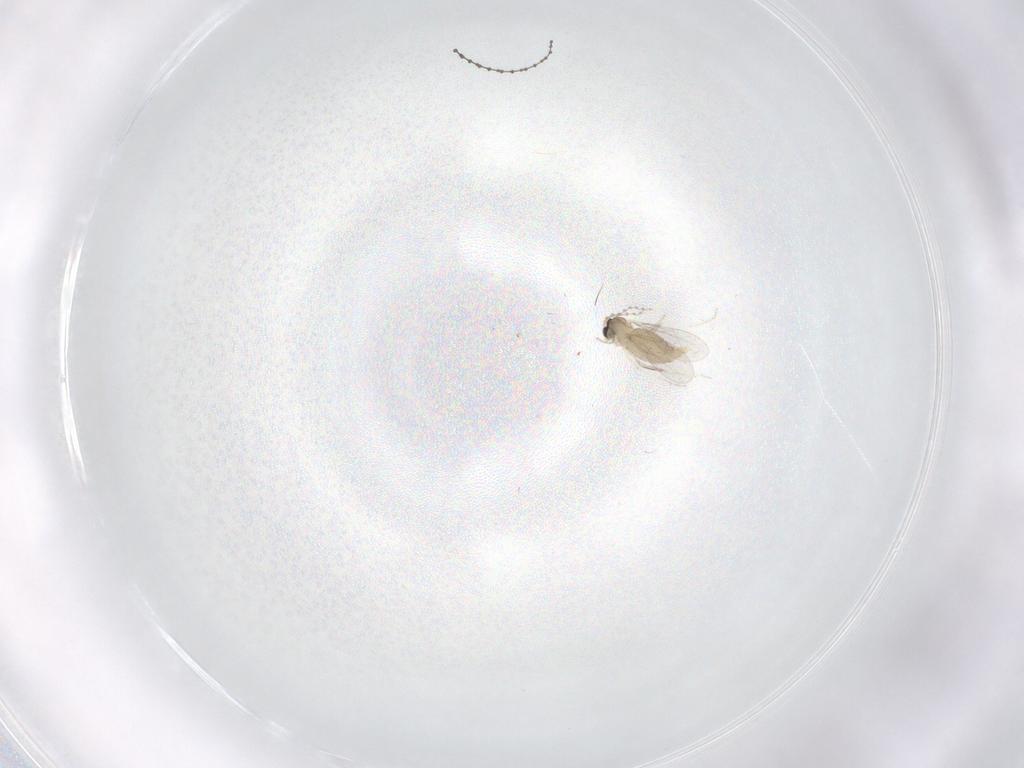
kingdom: Animalia
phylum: Arthropoda
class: Insecta
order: Diptera
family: Cecidomyiidae
